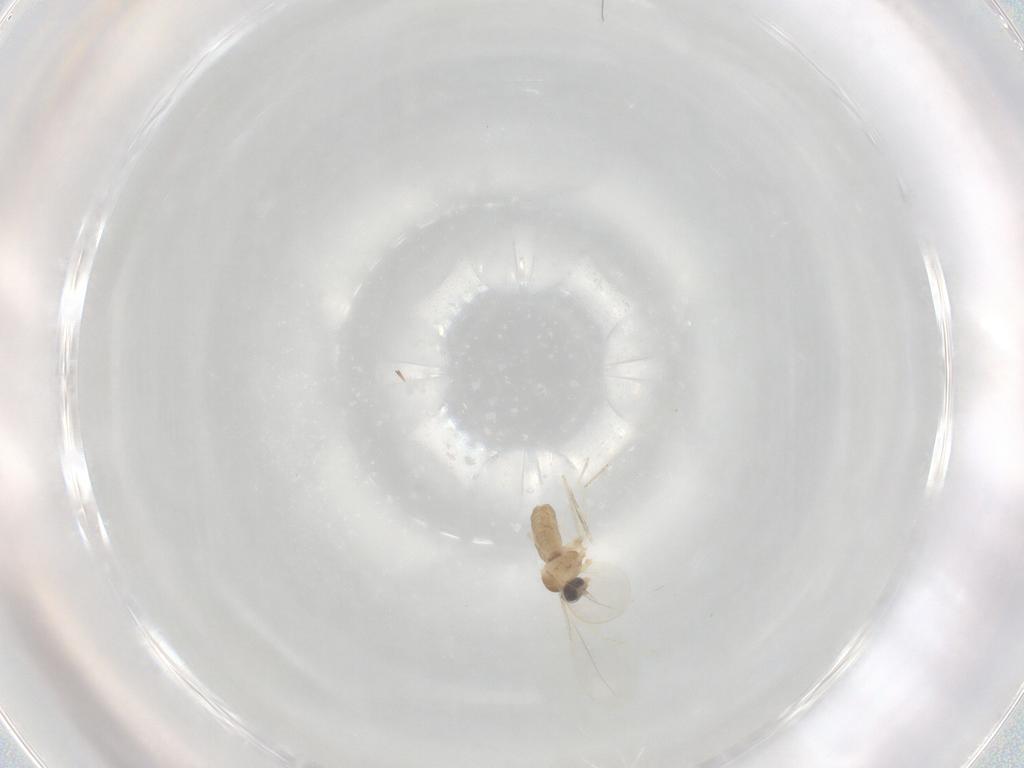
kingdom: Animalia
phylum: Arthropoda
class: Insecta
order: Diptera
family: Cecidomyiidae
